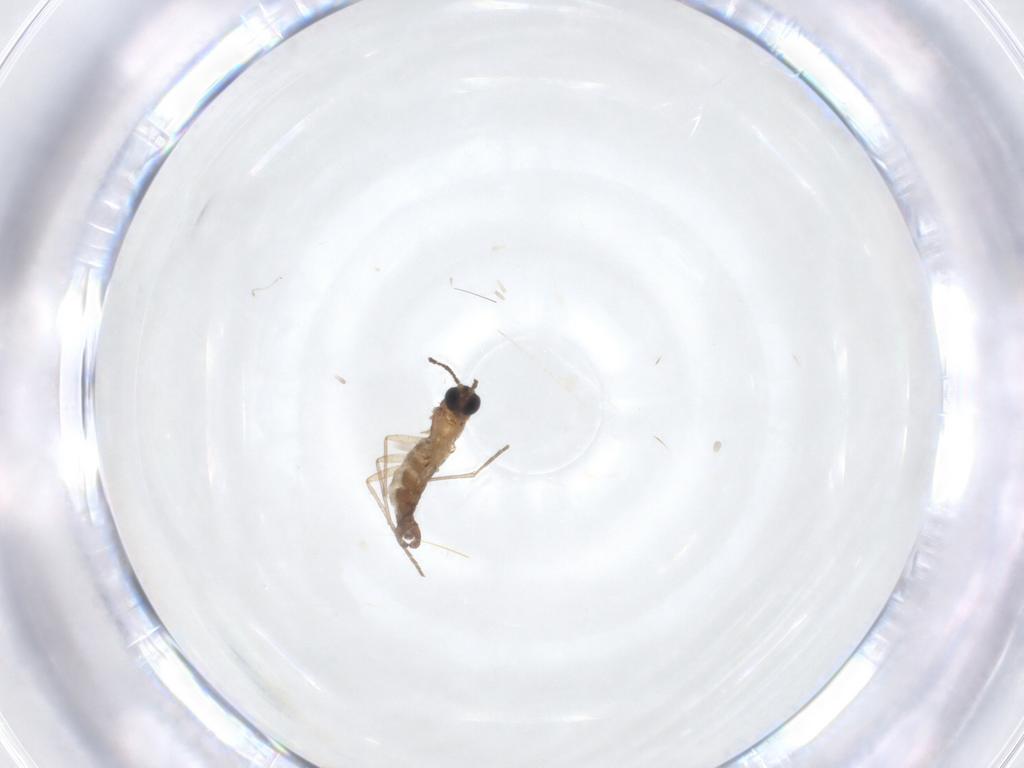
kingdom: Animalia
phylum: Arthropoda
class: Insecta
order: Diptera
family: Sciaridae
